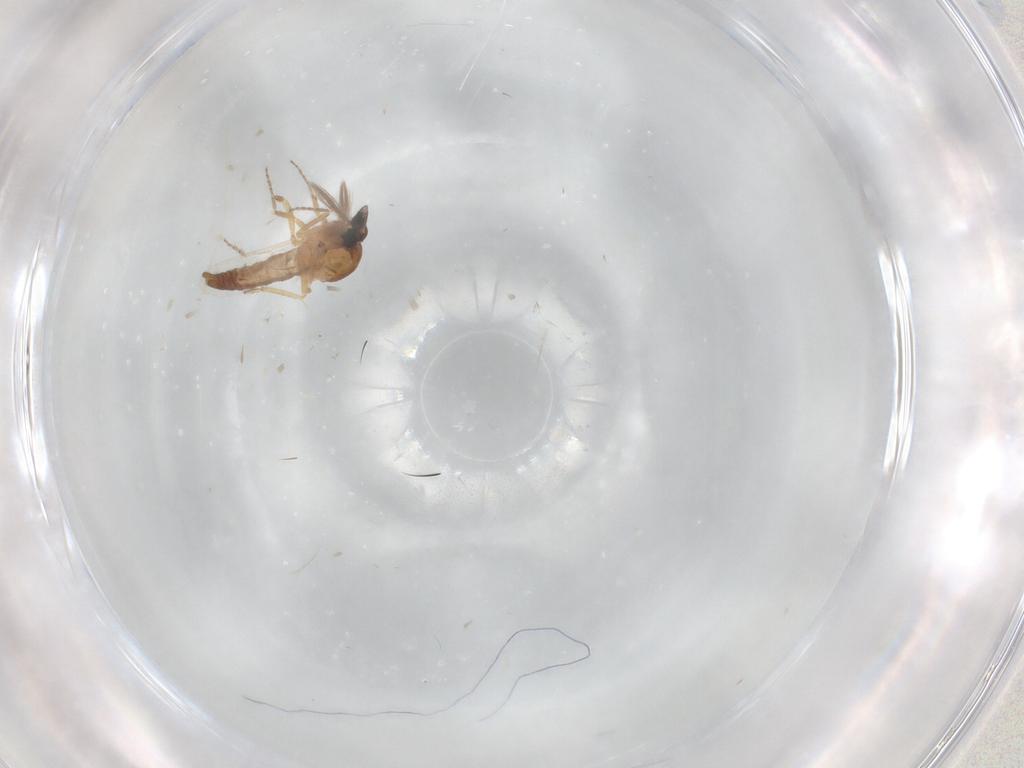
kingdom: Animalia
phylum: Arthropoda
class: Insecta
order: Diptera
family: Ceratopogonidae
